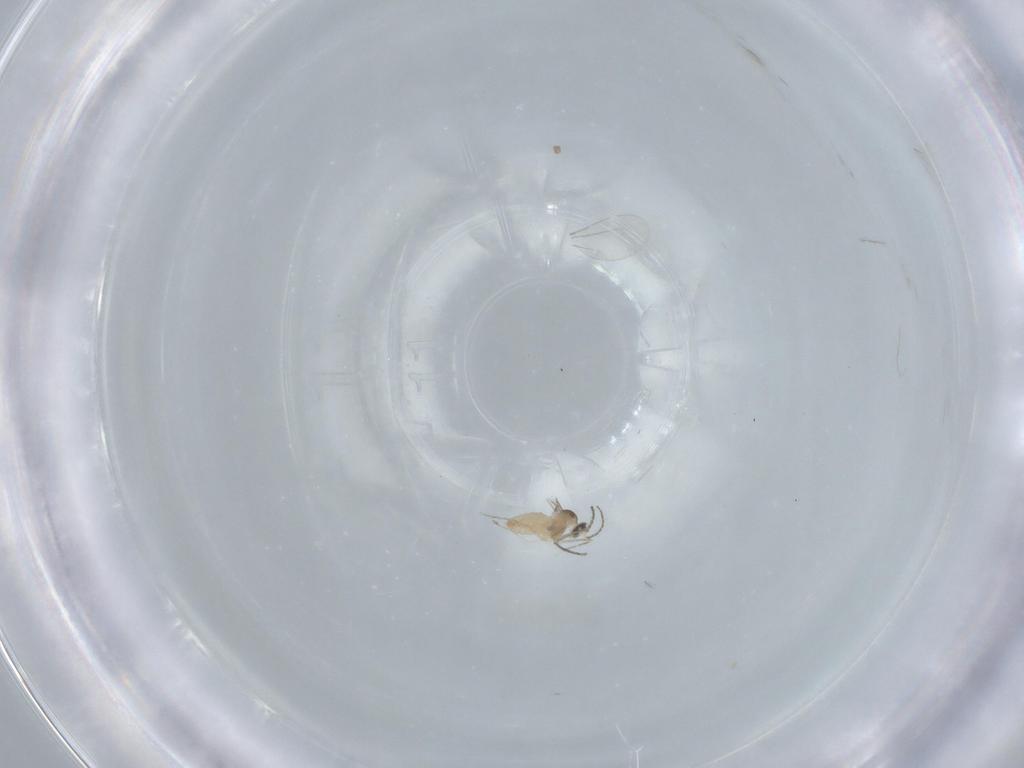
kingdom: Animalia
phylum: Arthropoda
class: Insecta
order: Diptera
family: Cecidomyiidae
